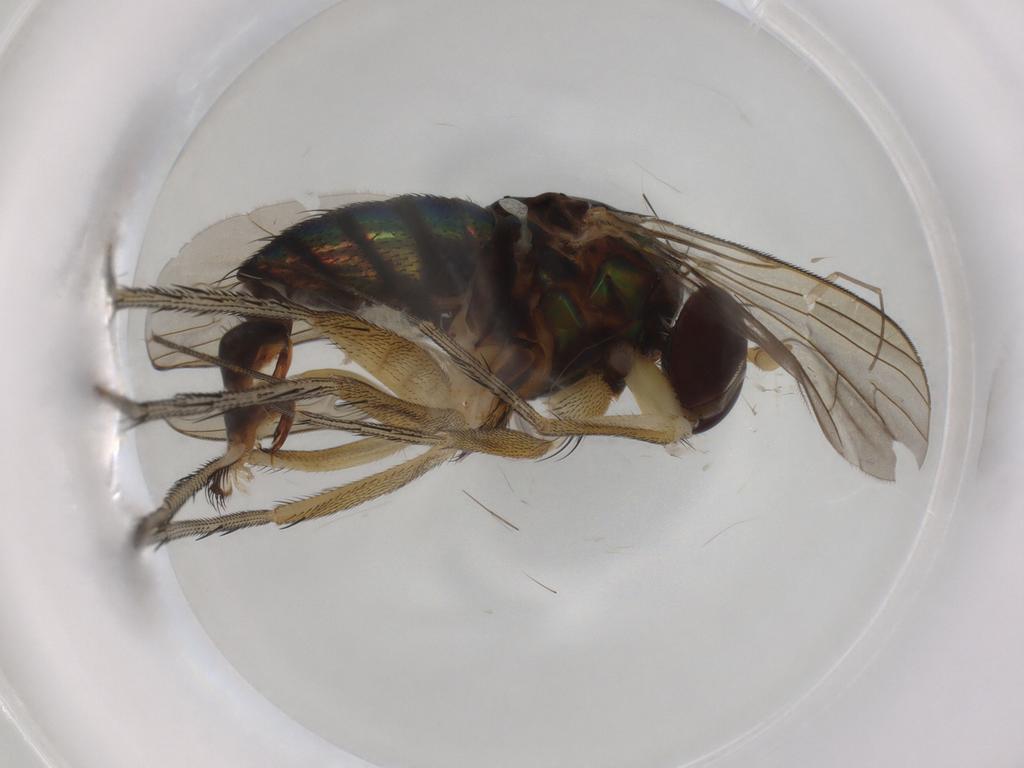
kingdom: Animalia
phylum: Arthropoda
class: Insecta
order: Diptera
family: Dolichopodidae
